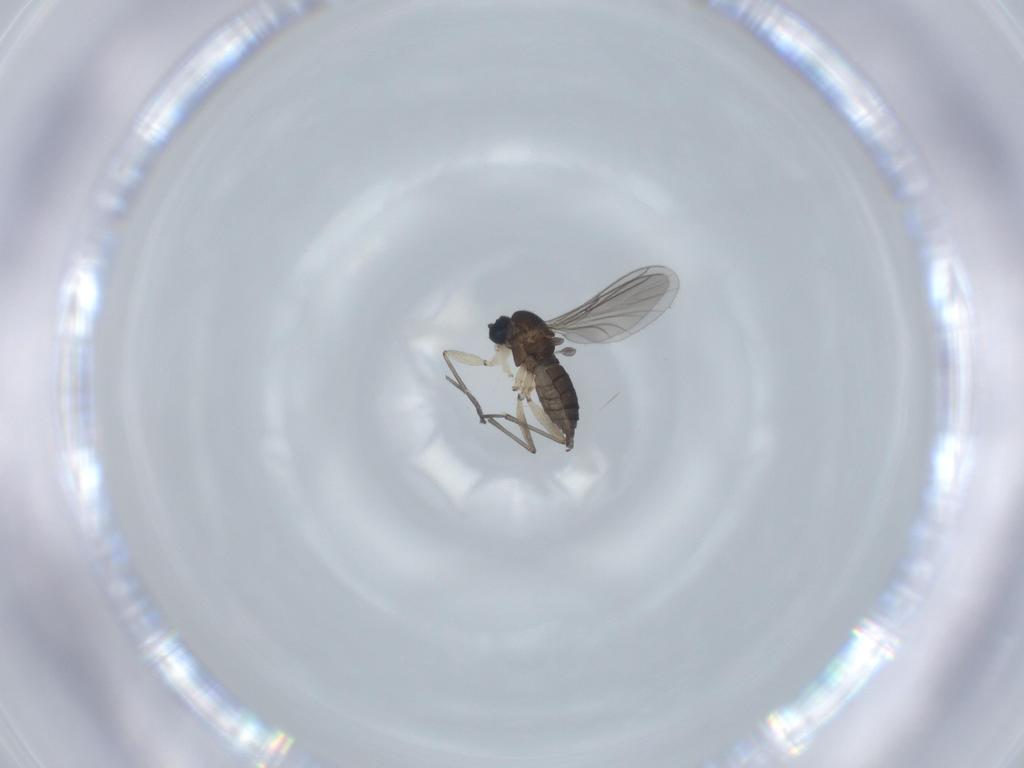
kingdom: Animalia
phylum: Arthropoda
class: Insecta
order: Diptera
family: Sciaridae
